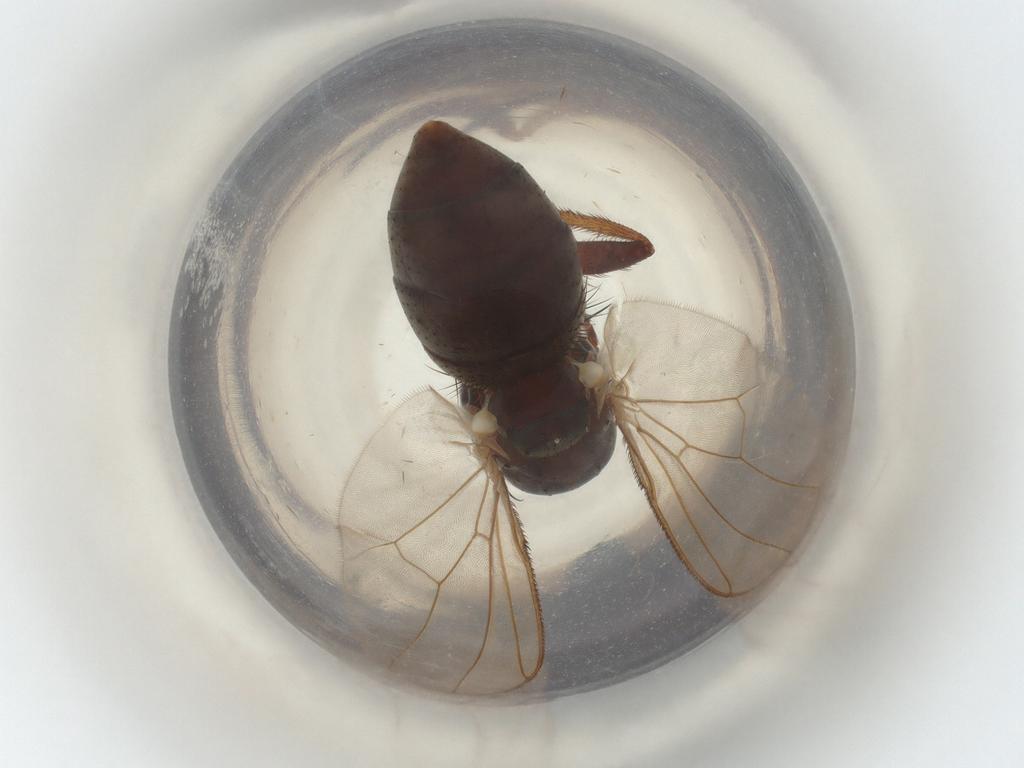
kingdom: Animalia
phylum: Arthropoda
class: Insecta
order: Diptera
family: Muscidae
